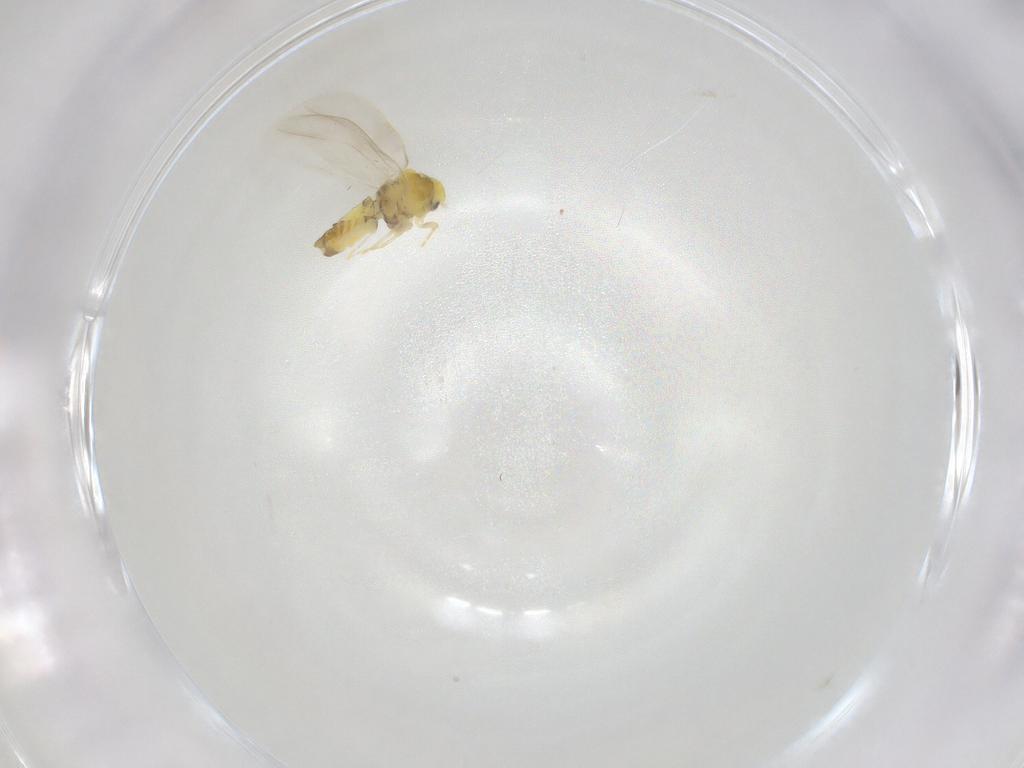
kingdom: Animalia
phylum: Arthropoda
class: Insecta
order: Hemiptera
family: Aleyrodidae
